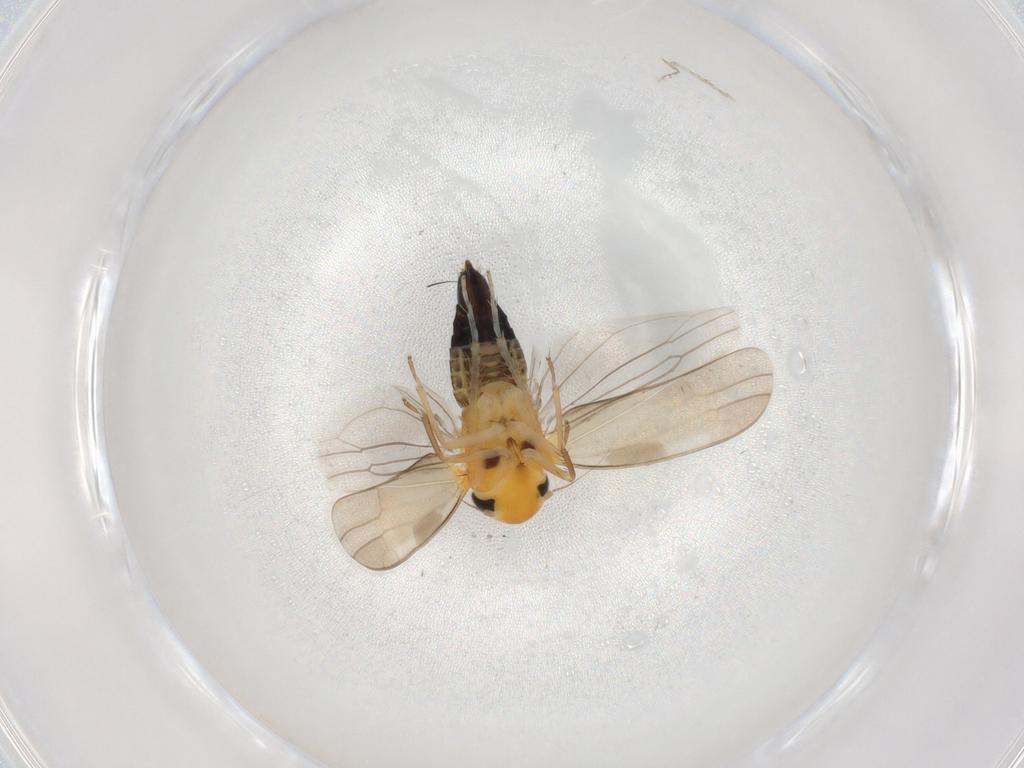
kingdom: Animalia
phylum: Arthropoda
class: Insecta
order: Hemiptera
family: Cicadellidae
